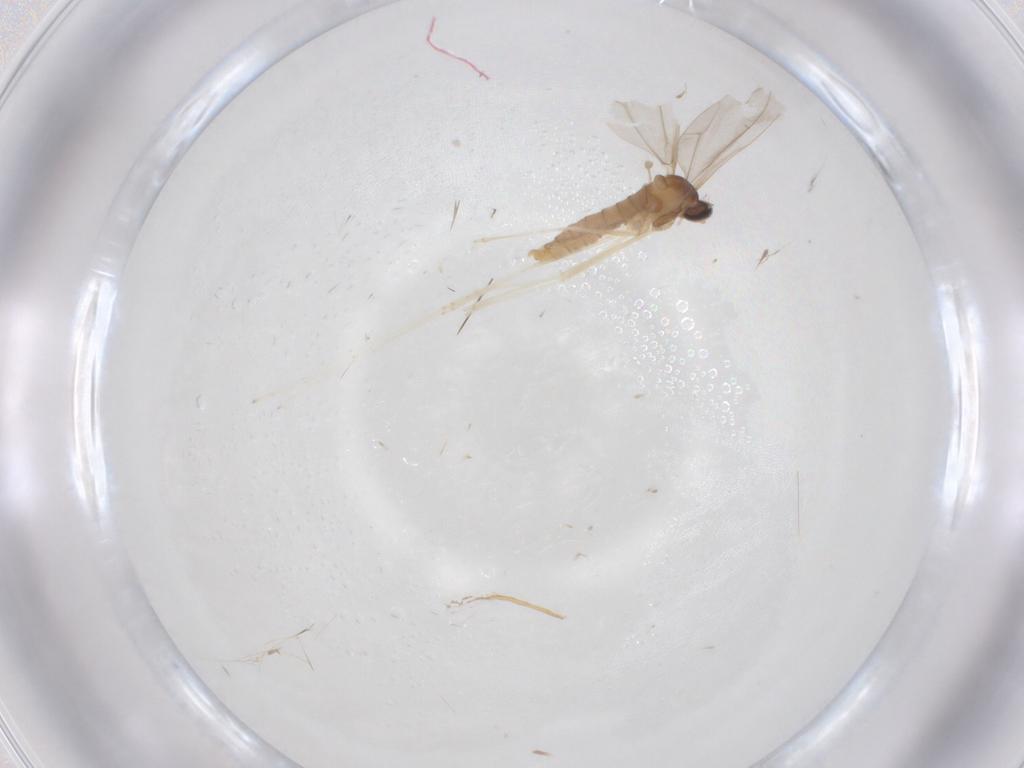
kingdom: Animalia
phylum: Arthropoda
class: Insecta
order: Diptera
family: Cecidomyiidae
